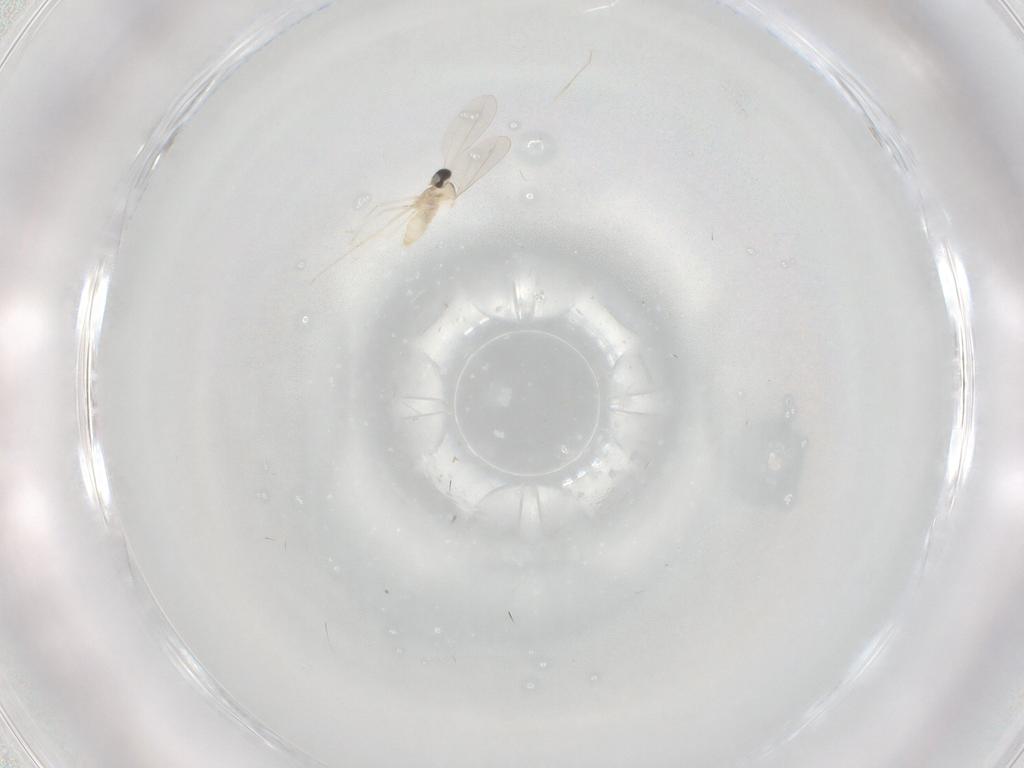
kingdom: Animalia
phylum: Arthropoda
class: Insecta
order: Diptera
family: Cecidomyiidae
